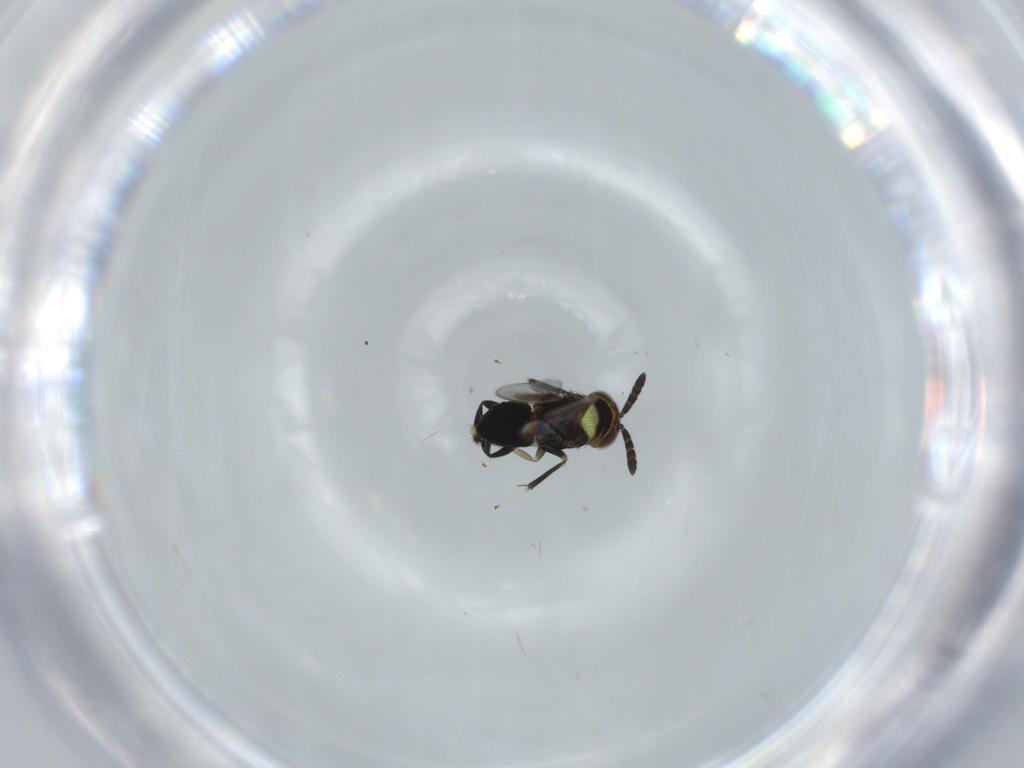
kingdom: Animalia
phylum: Arthropoda
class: Insecta
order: Hymenoptera
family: Aphelinidae
